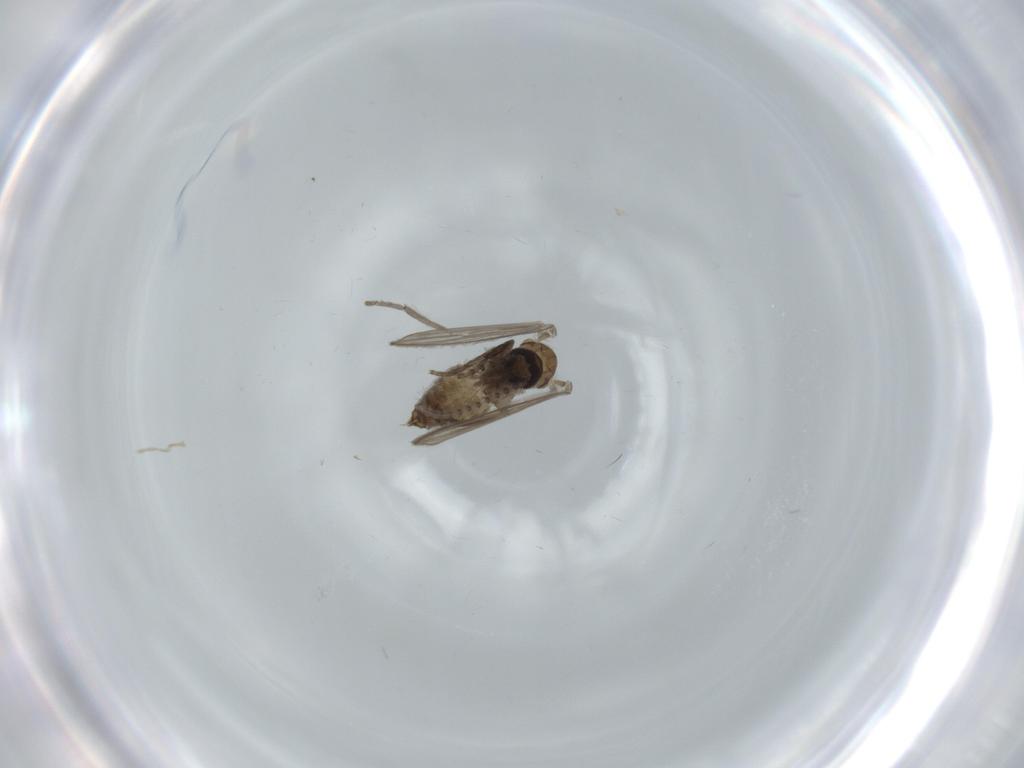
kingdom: Animalia
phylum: Arthropoda
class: Insecta
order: Diptera
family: Psychodidae
